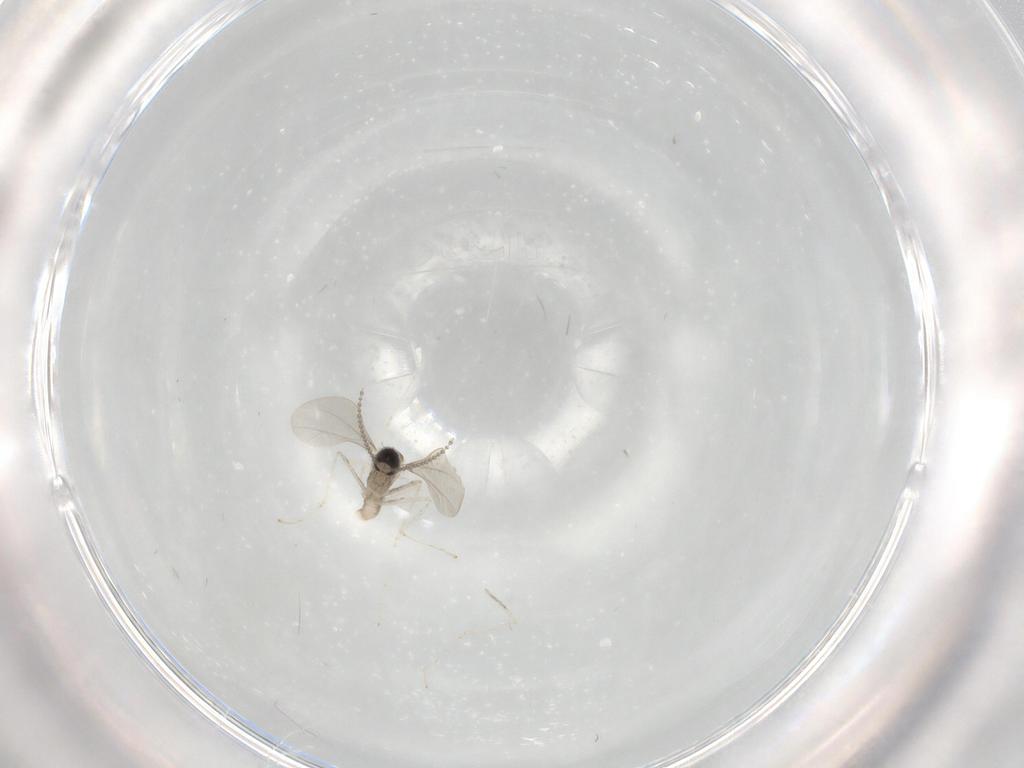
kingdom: Animalia
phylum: Arthropoda
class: Insecta
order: Diptera
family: Cecidomyiidae
